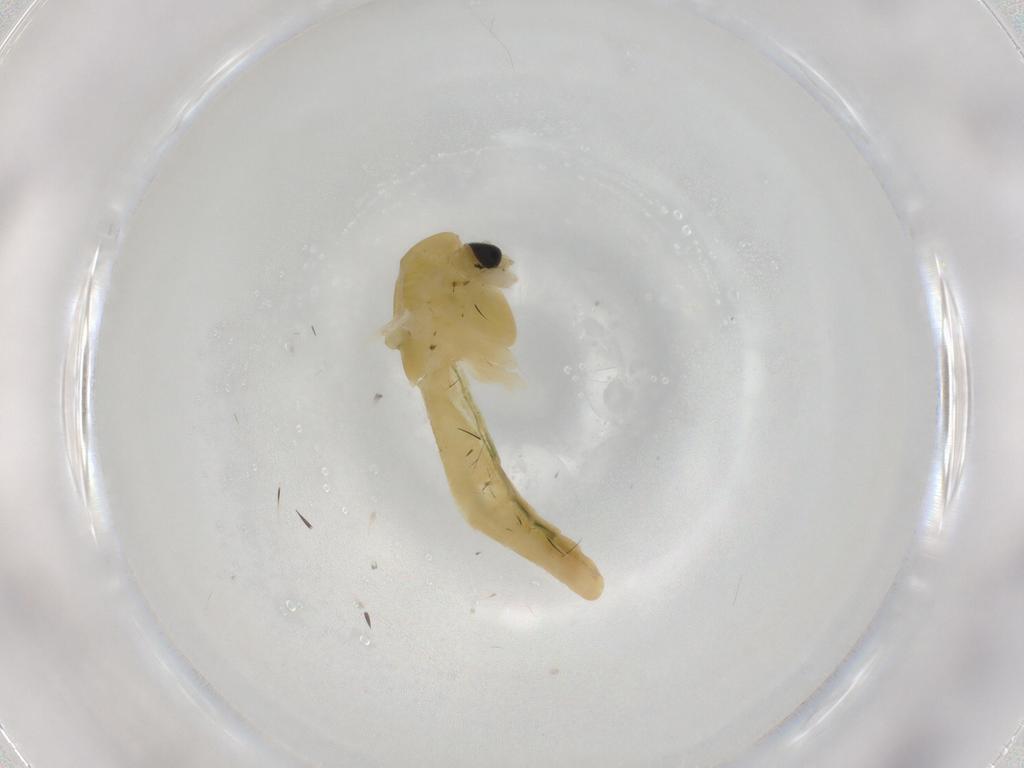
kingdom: Animalia
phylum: Arthropoda
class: Insecta
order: Diptera
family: Chironomidae
